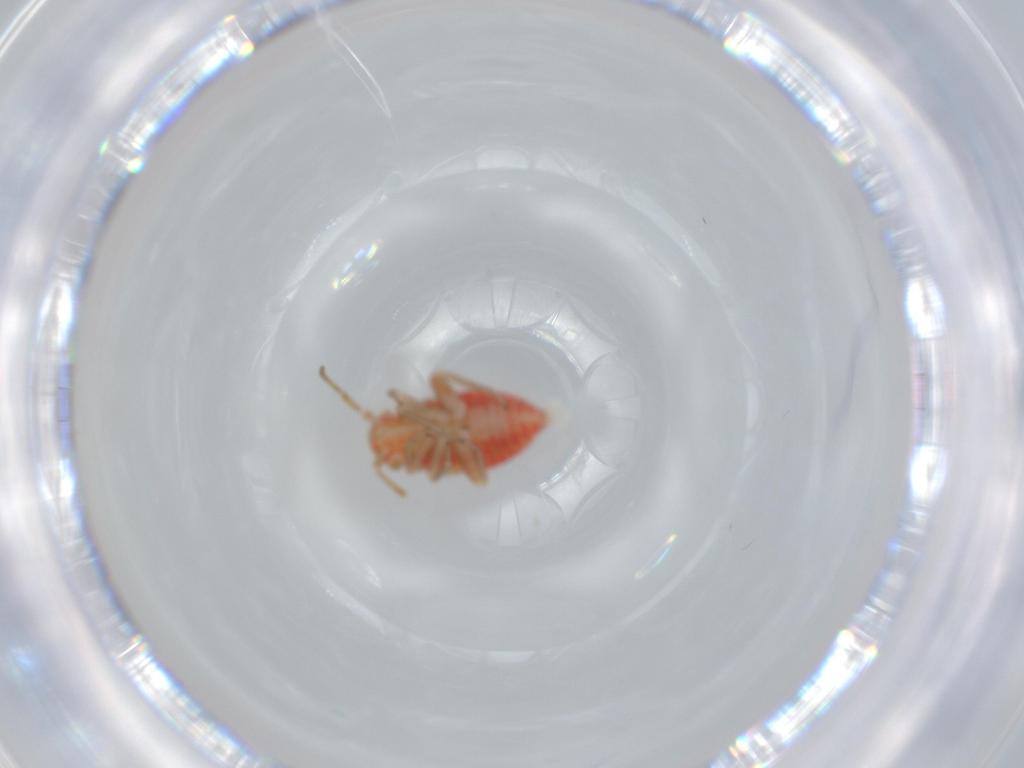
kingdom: Animalia
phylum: Arthropoda
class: Insecta
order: Hemiptera
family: Miridae
